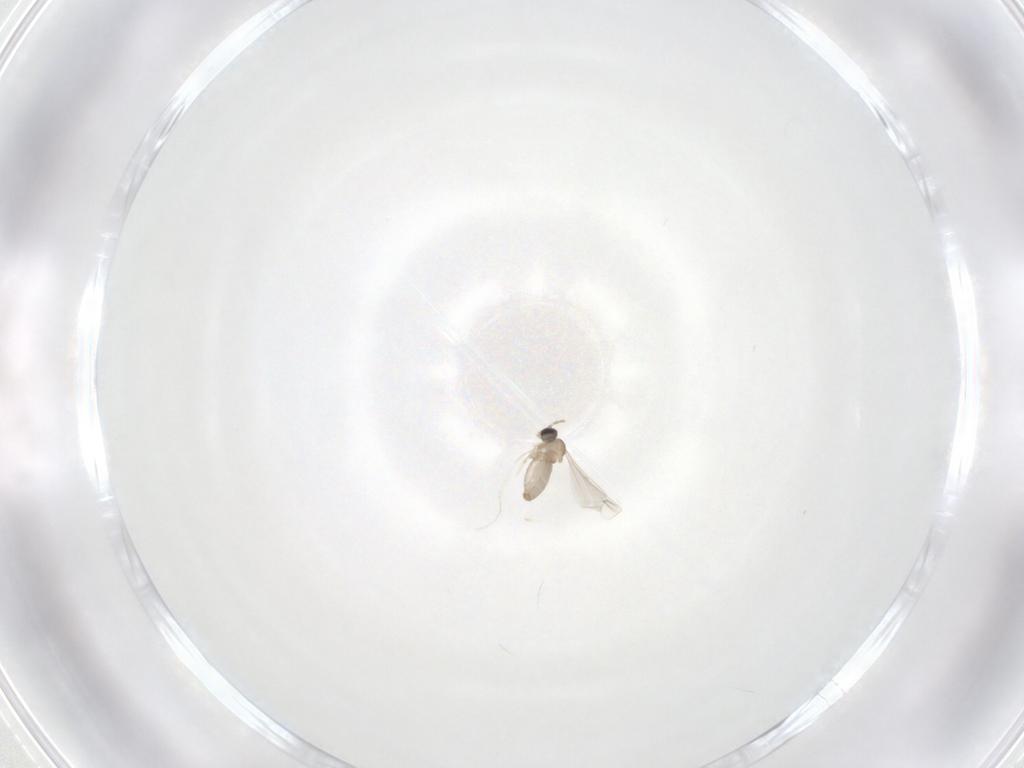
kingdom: Animalia
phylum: Arthropoda
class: Insecta
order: Diptera
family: Cecidomyiidae
